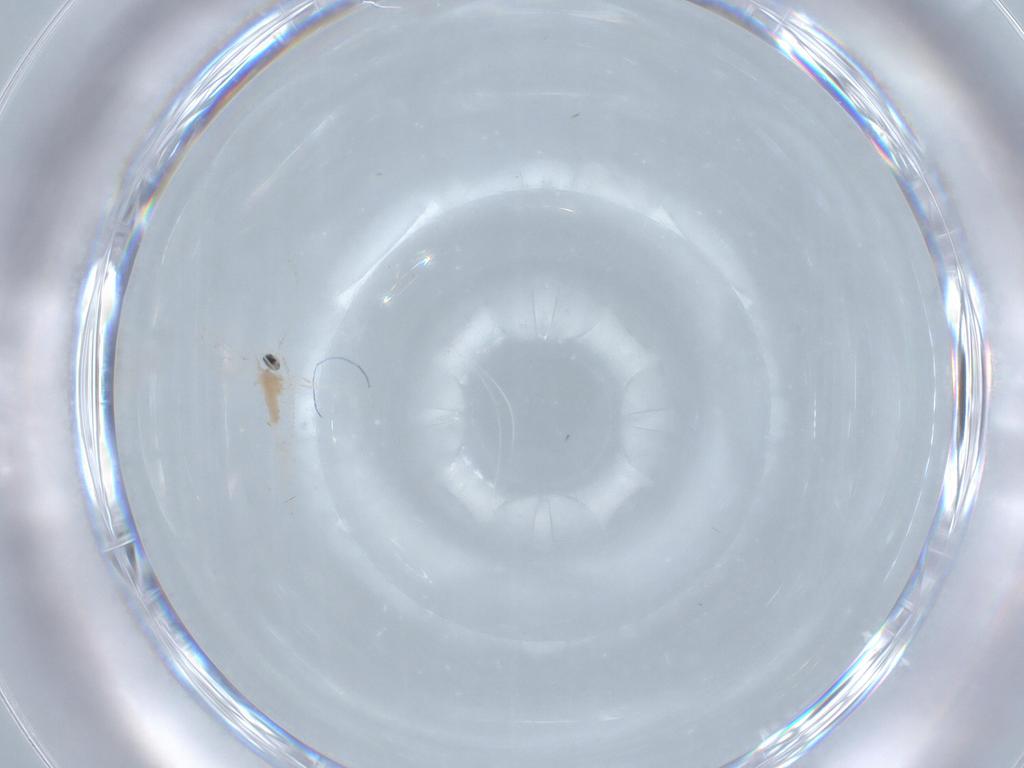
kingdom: Animalia
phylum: Arthropoda
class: Insecta
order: Diptera
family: Cecidomyiidae
